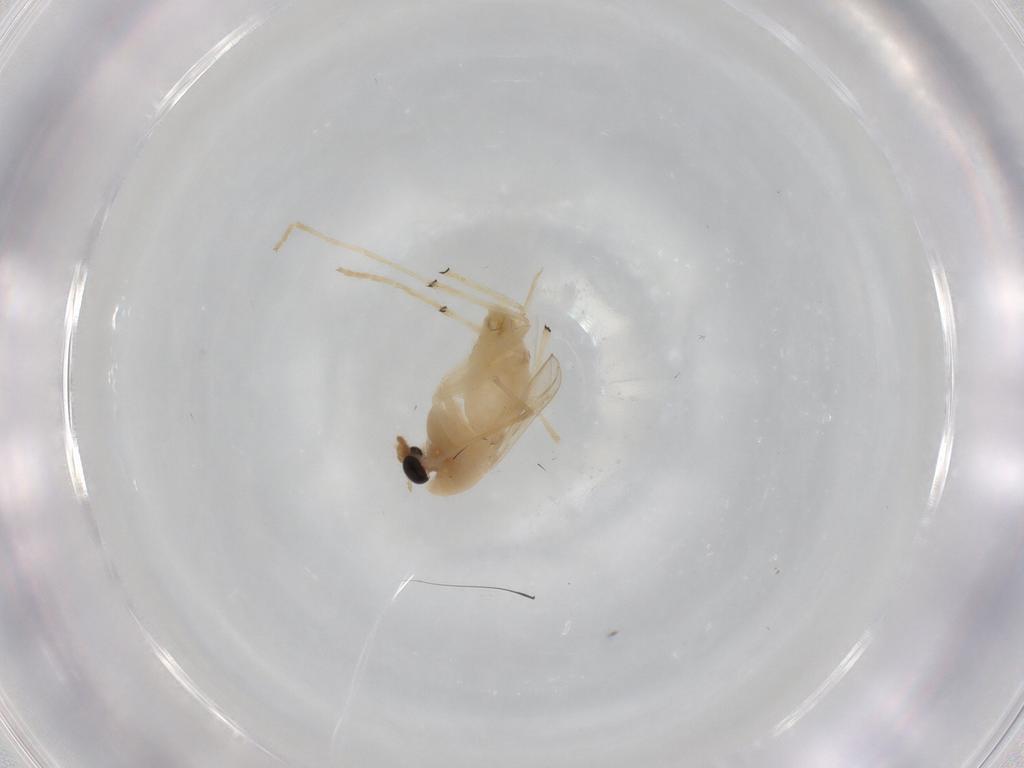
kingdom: Animalia
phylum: Arthropoda
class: Insecta
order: Diptera
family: Chironomidae
